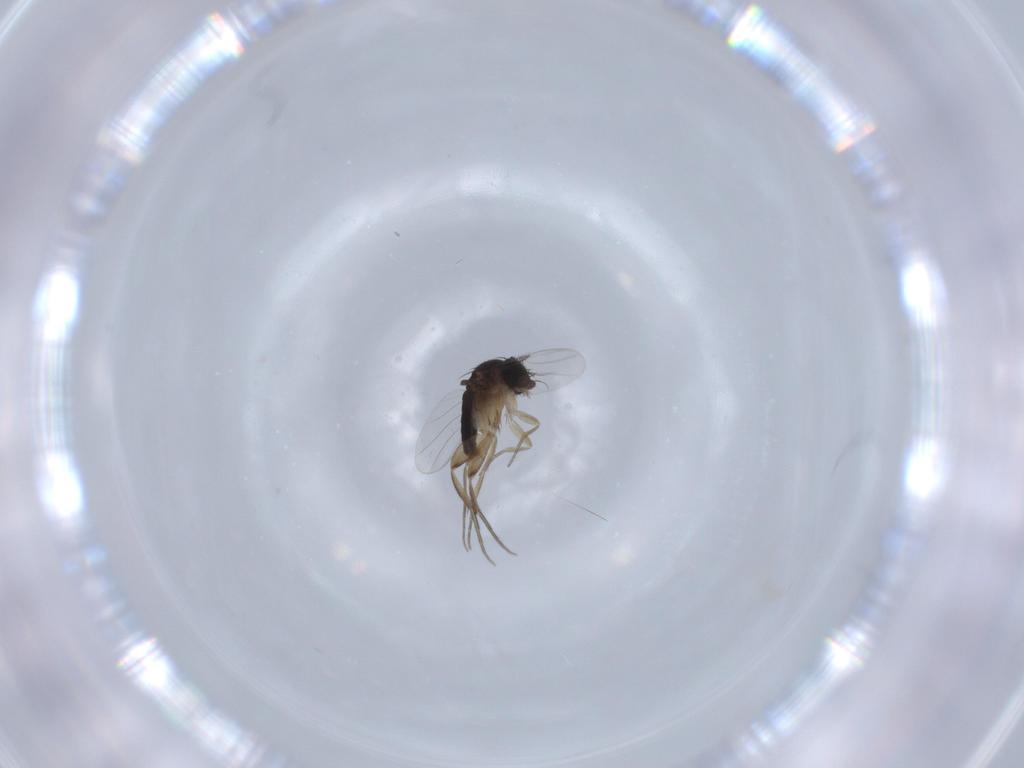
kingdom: Animalia
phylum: Arthropoda
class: Insecta
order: Diptera
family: Phoridae
